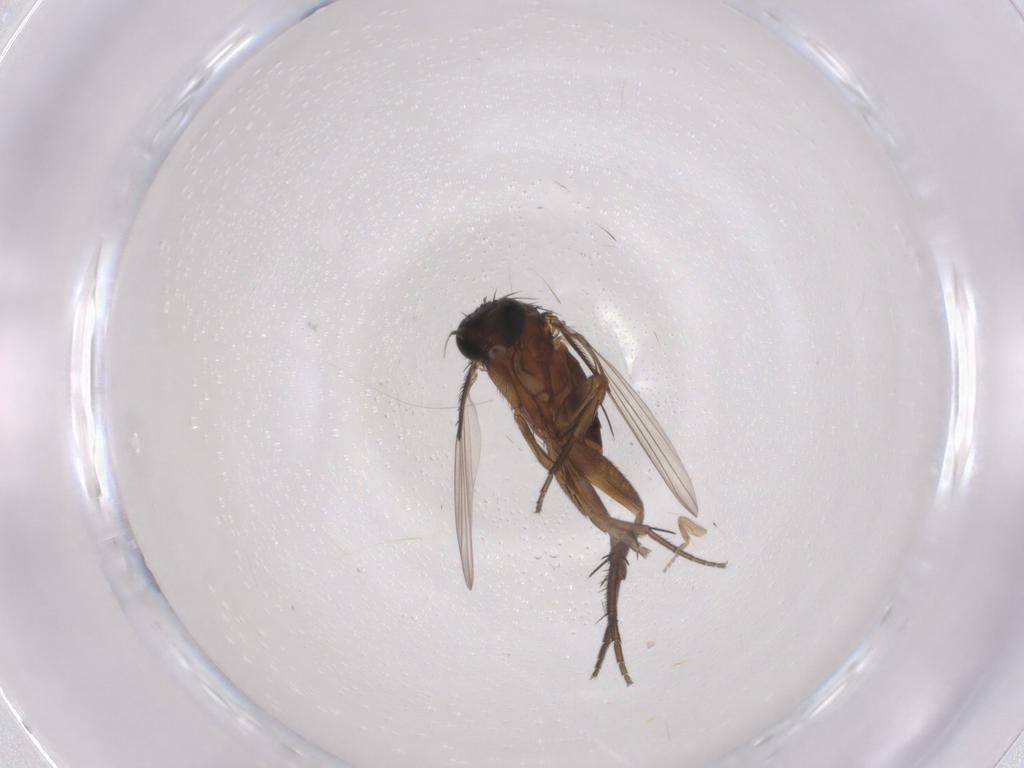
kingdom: Animalia
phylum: Arthropoda
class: Insecta
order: Diptera
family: Phoridae
